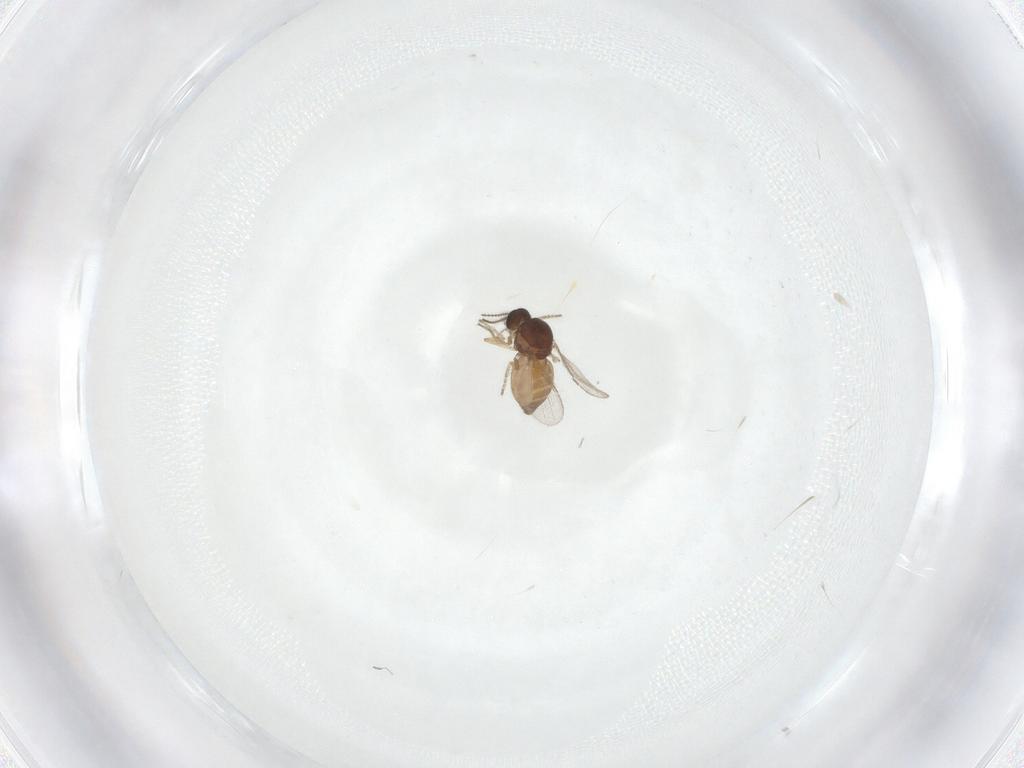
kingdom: Animalia
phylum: Arthropoda
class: Insecta
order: Diptera
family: Ceratopogonidae
